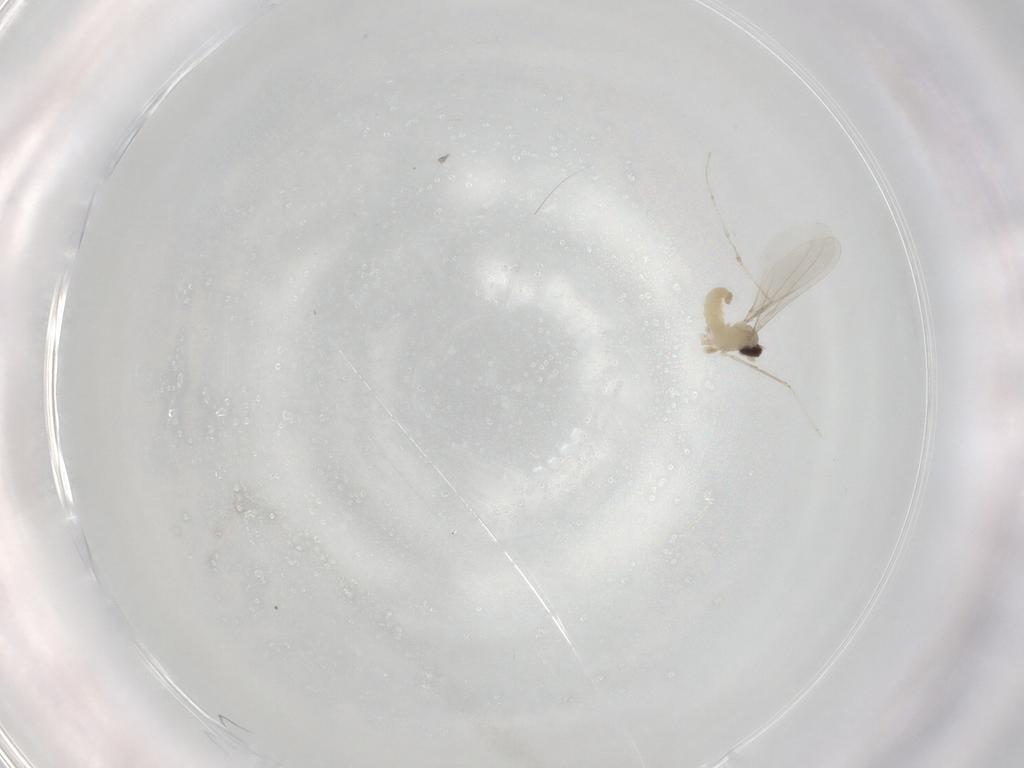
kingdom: Animalia
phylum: Arthropoda
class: Insecta
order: Diptera
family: Cecidomyiidae
